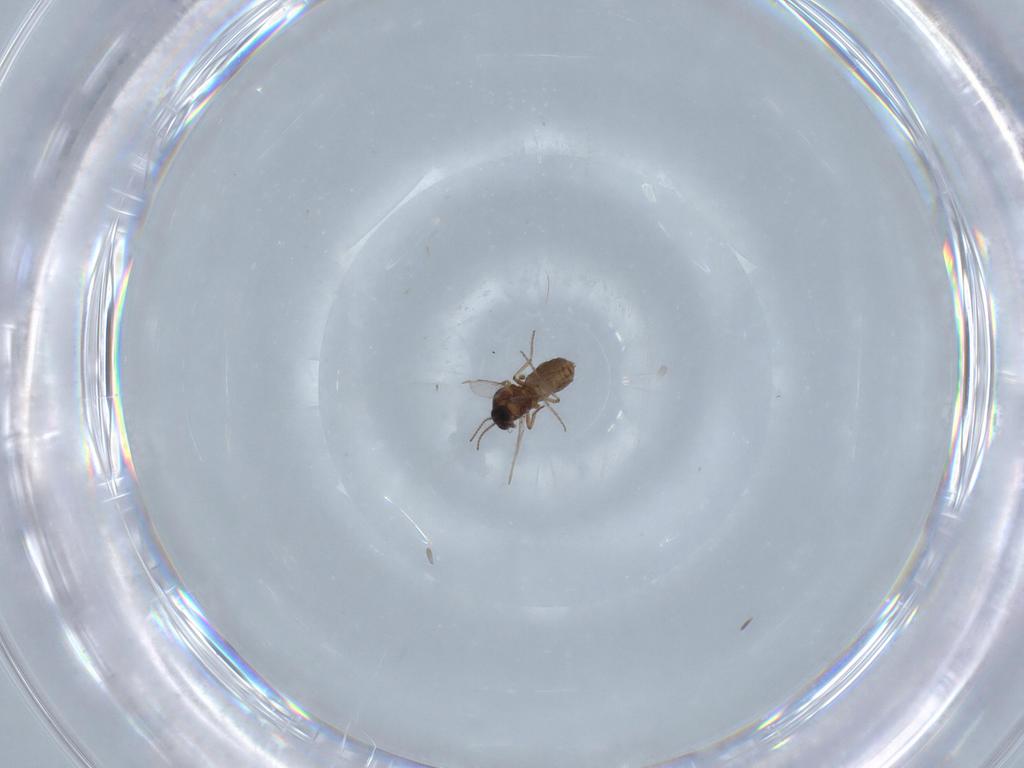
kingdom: Animalia
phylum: Arthropoda
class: Insecta
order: Diptera
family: Ceratopogonidae
